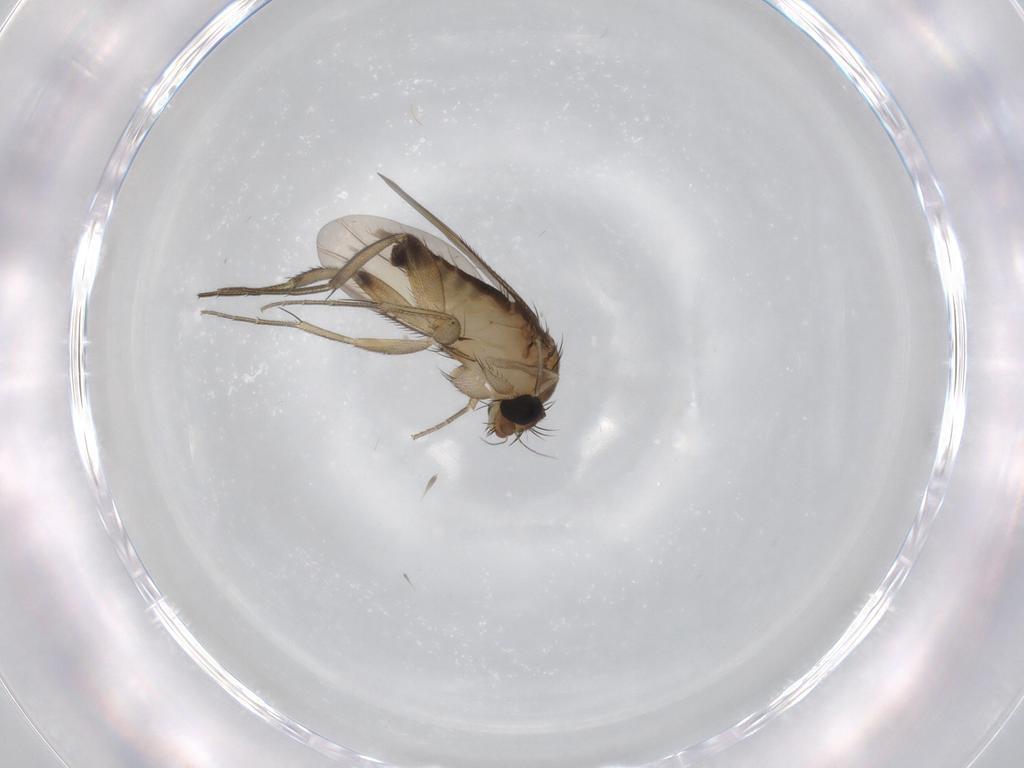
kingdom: Animalia
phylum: Arthropoda
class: Insecta
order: Diptera
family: Phoridae
